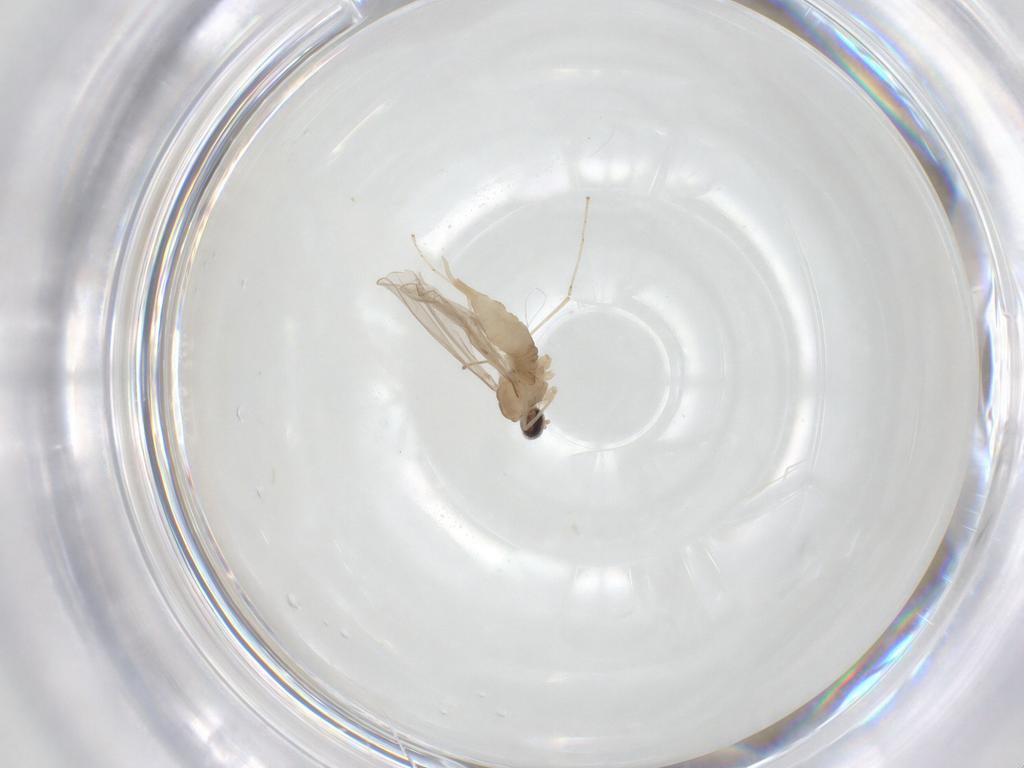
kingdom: Animalia
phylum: Arthropoda
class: Insecta
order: Diptera
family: Cecidomyiidae
